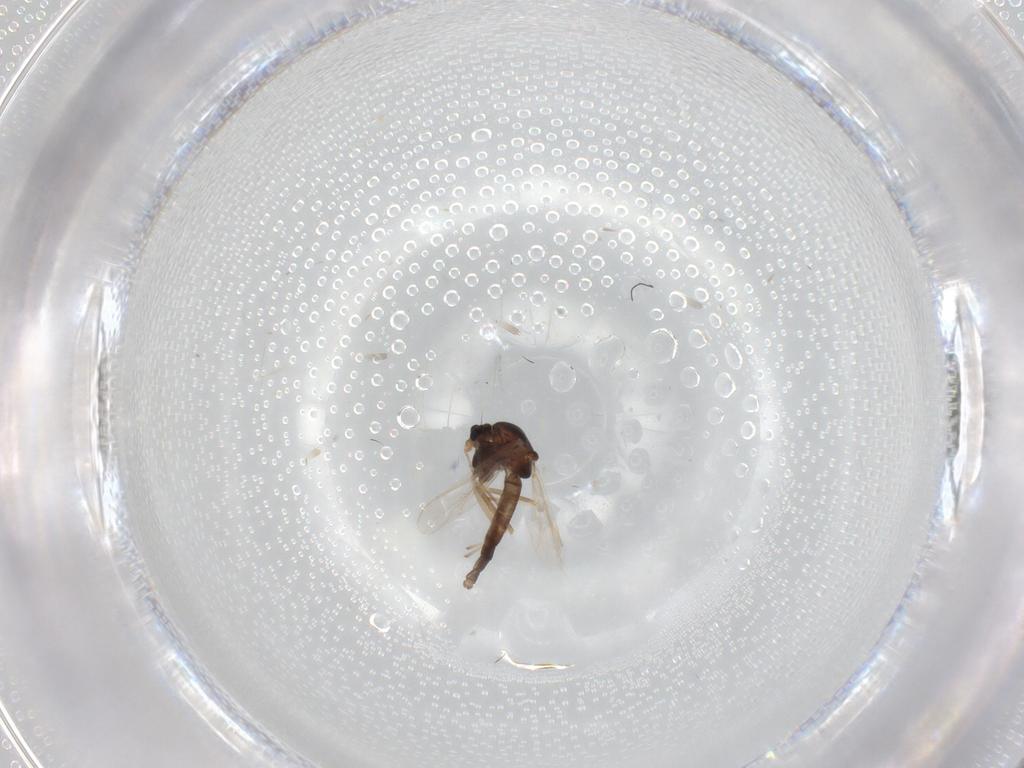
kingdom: Animalia
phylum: Arthropoda
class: Insecta
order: Diptera
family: Chironomidae
